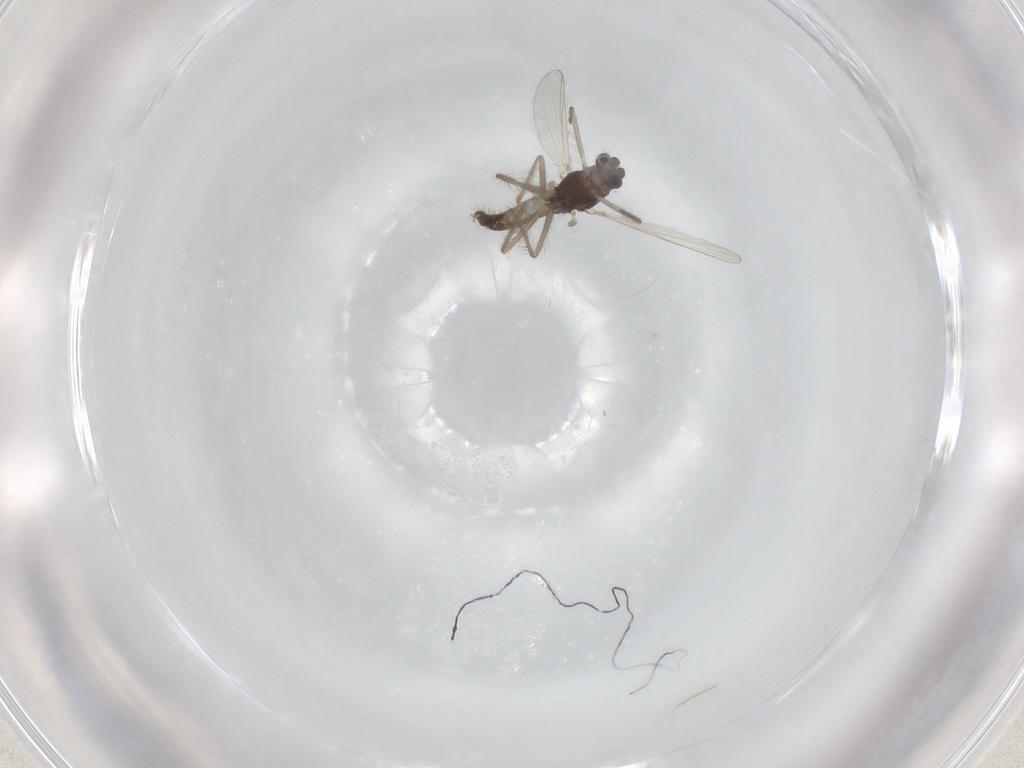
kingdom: Animalia
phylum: Arthropoda
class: Insecta
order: Diptera
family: Chironomidae
